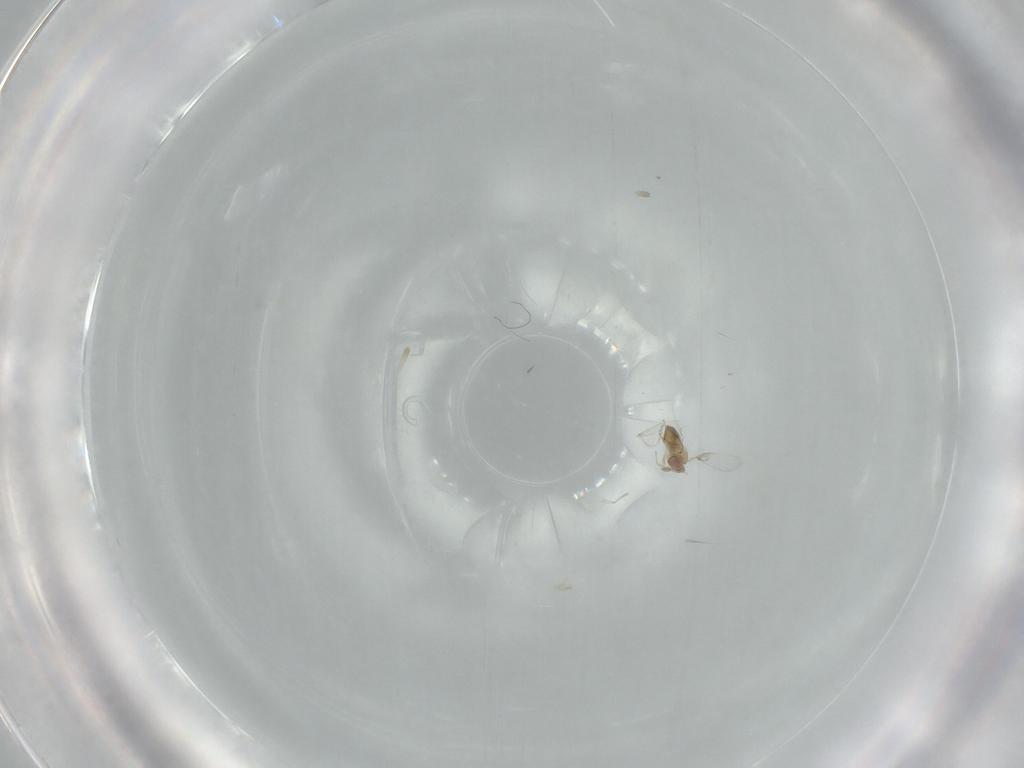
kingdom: Animalia
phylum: Arthropoda
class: Insecta
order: Hymenoptera
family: Trichogrammatidae
